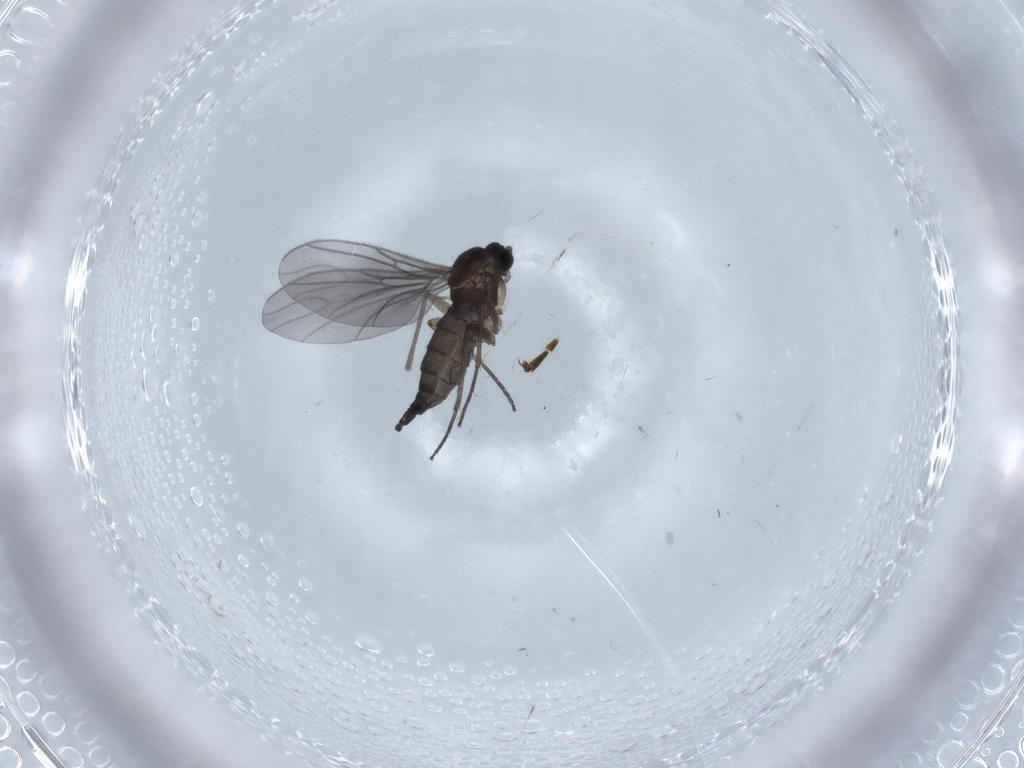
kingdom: Animalia
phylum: Arthropoda
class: Insecta
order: Diptera
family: Sciaridae
